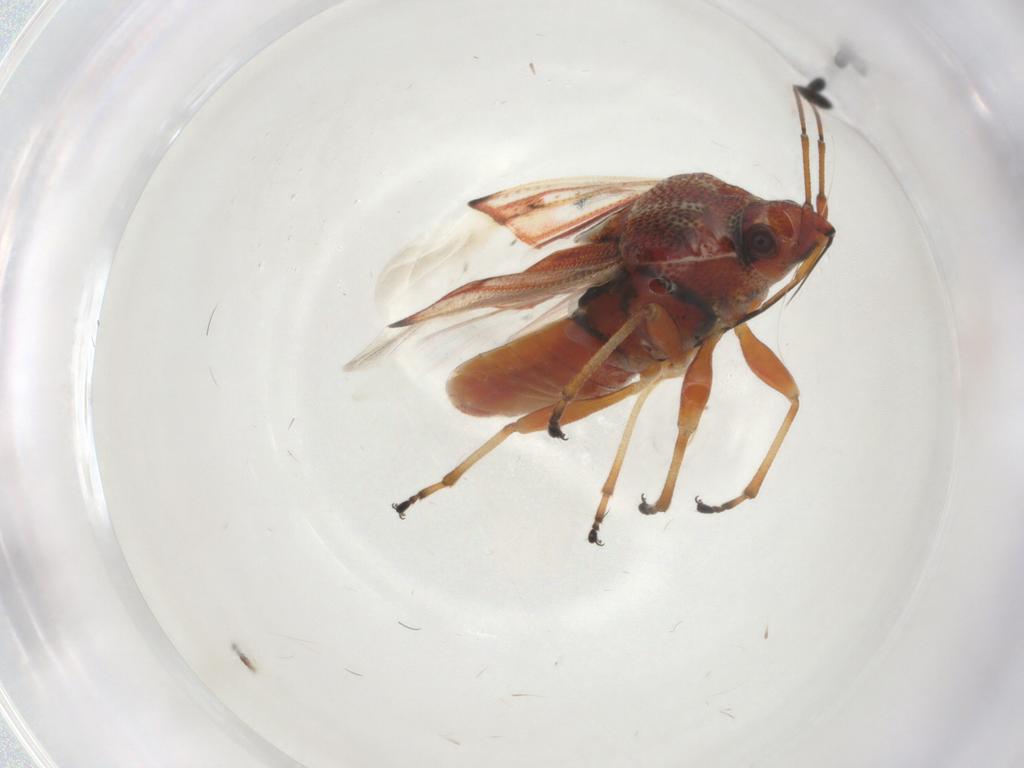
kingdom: Animalia
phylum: Arthropoda
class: Insecta
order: Hemiptera
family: Lygaeidae
